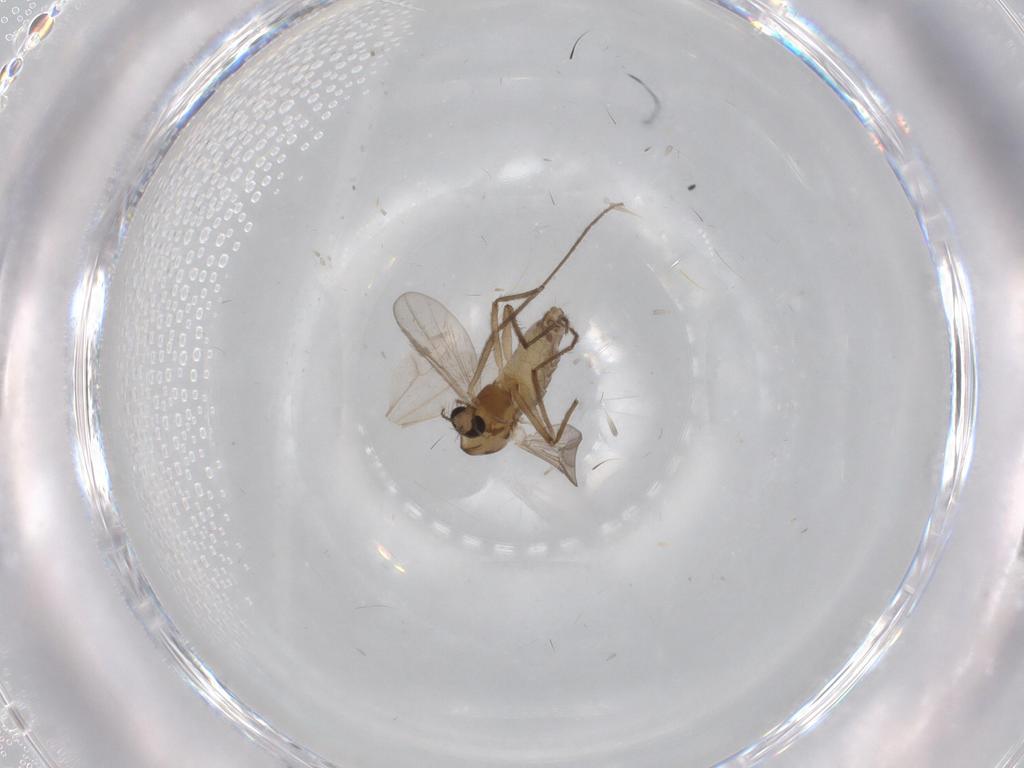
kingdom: Animalia
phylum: Arthropoda
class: Insecta
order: Diptera
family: Chironomidae
